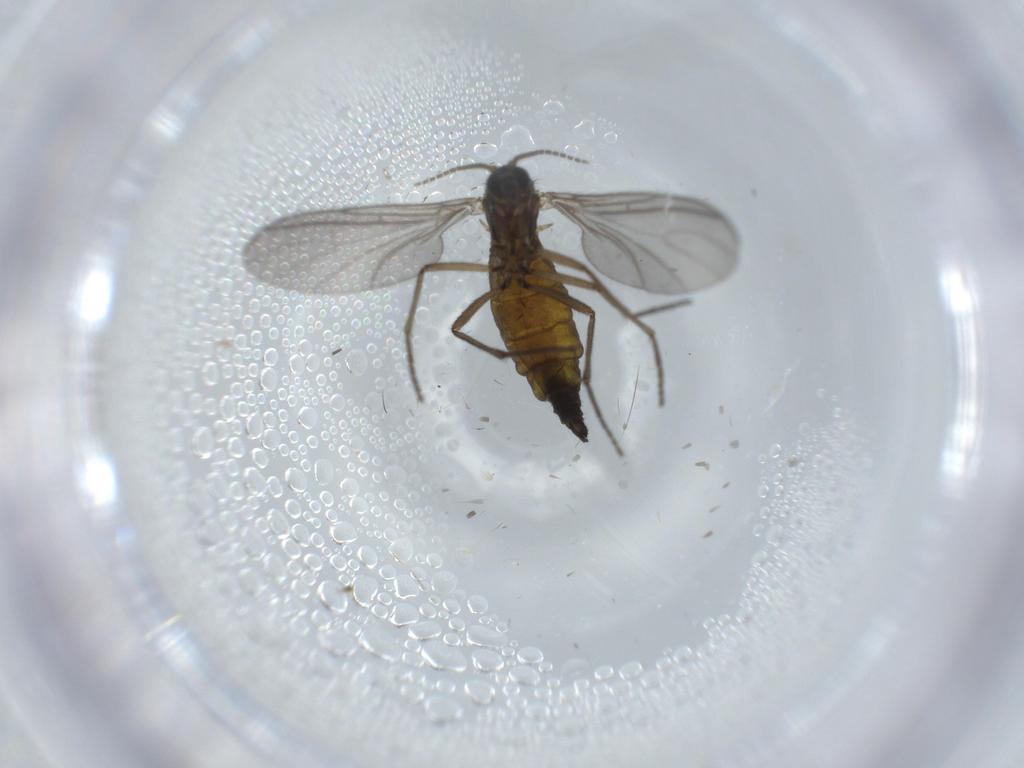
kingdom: Animalia
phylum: Arthropoda
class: Insecta
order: Diptera
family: Sciaridae
